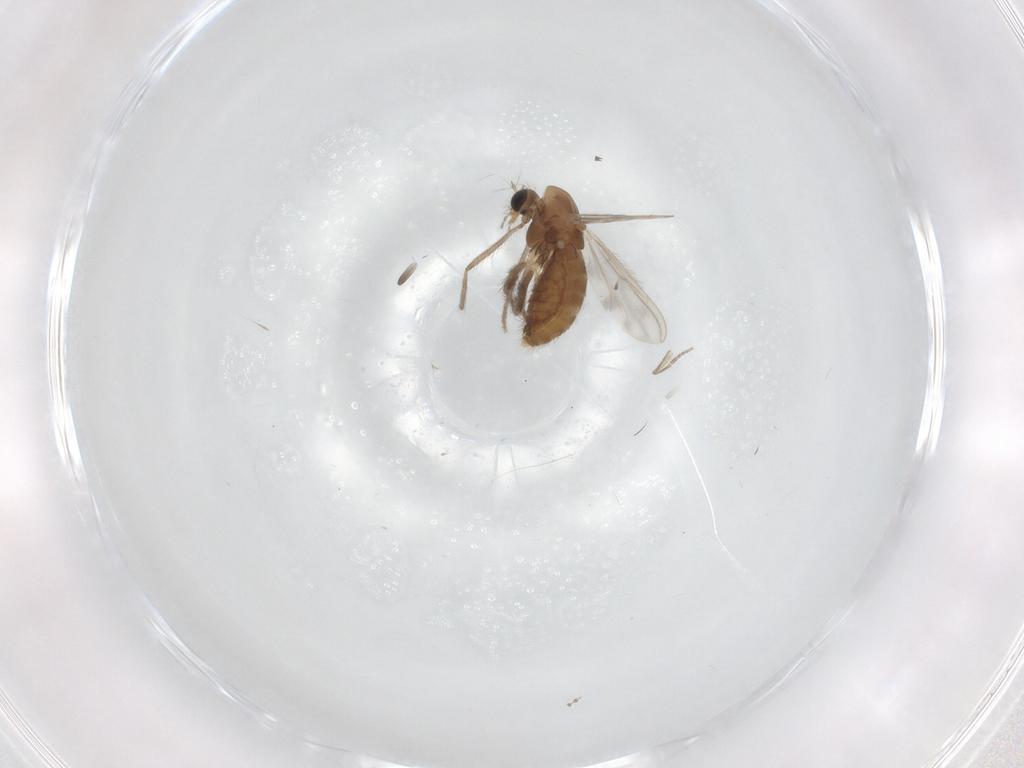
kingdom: Animalia
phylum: Arthropoda
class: Insecta
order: Diptera
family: Chironomidae
